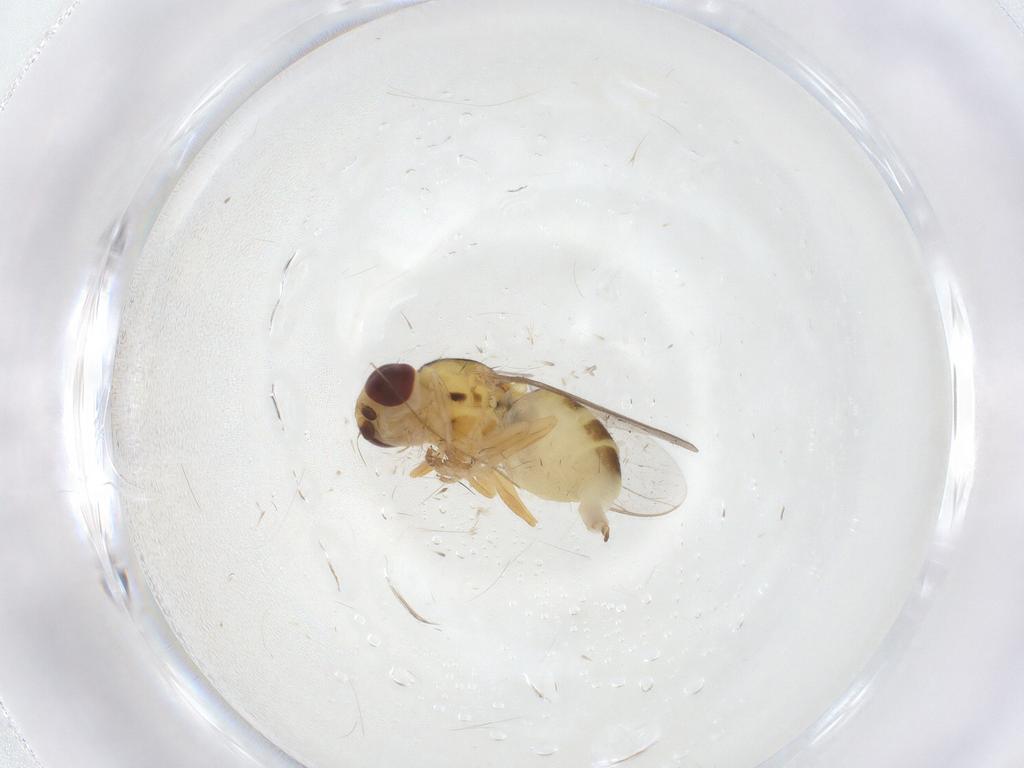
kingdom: Animalia
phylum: Arthropoda
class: Insecta
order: Diptera
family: Chloropidae
